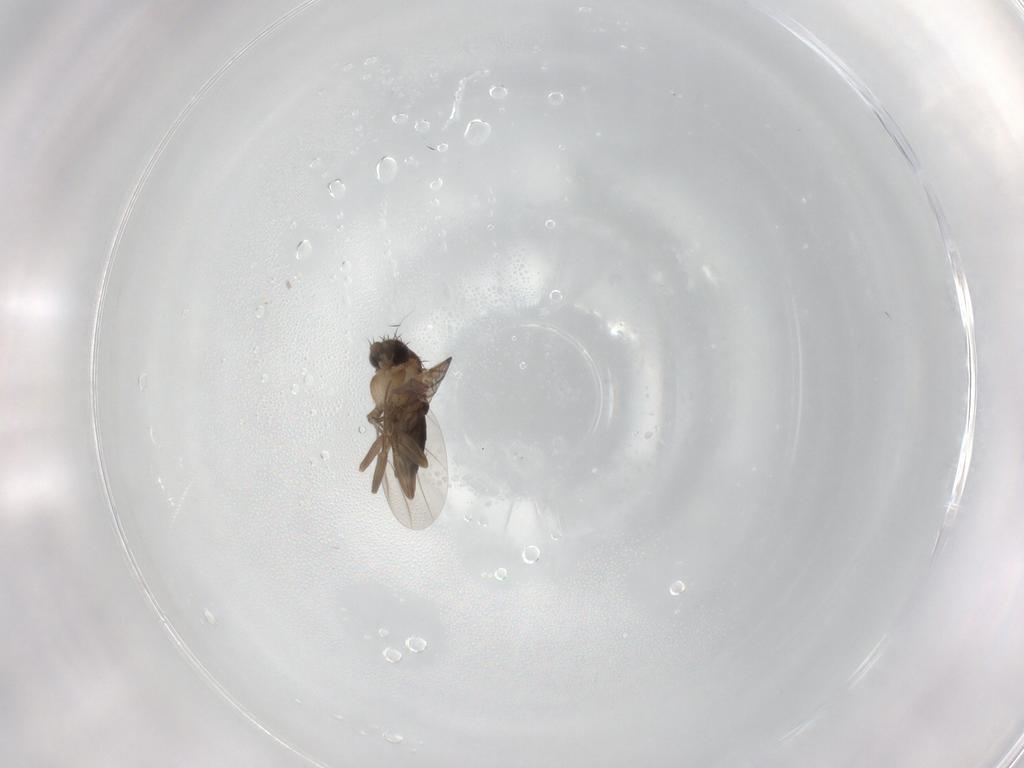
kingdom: Animalia
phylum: Arthropoda
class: Insecta
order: Diptera
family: Phoridae
